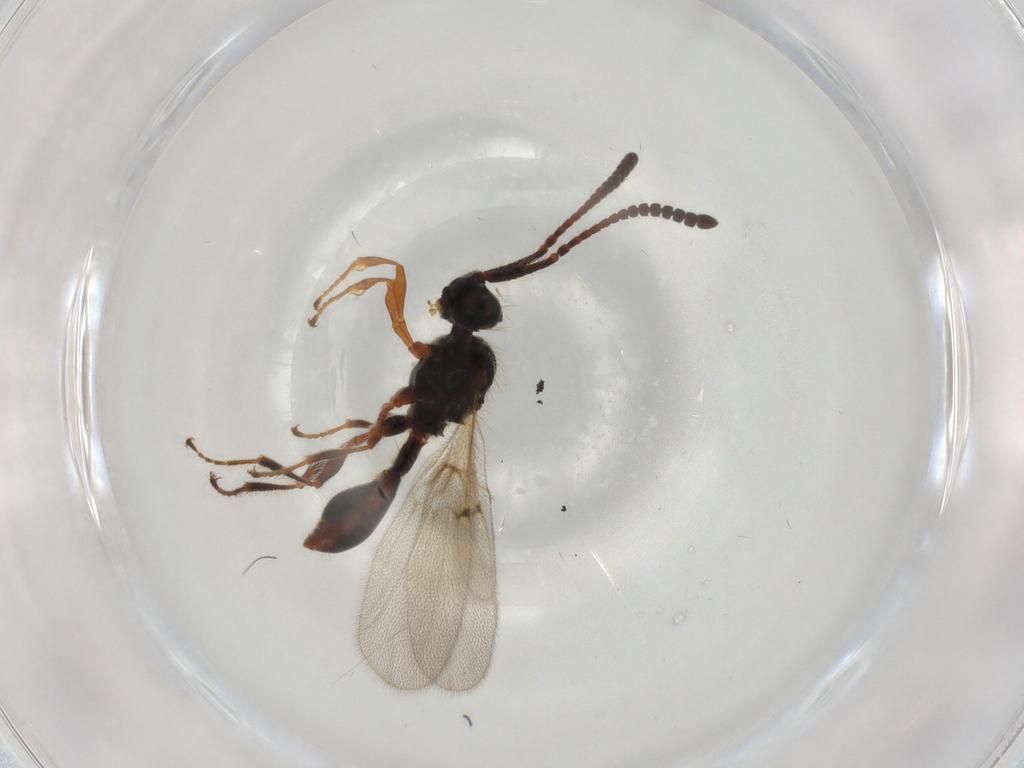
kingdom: Animalia
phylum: Arthropoda
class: Insecta
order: Hymenoptera
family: Diapriidae
